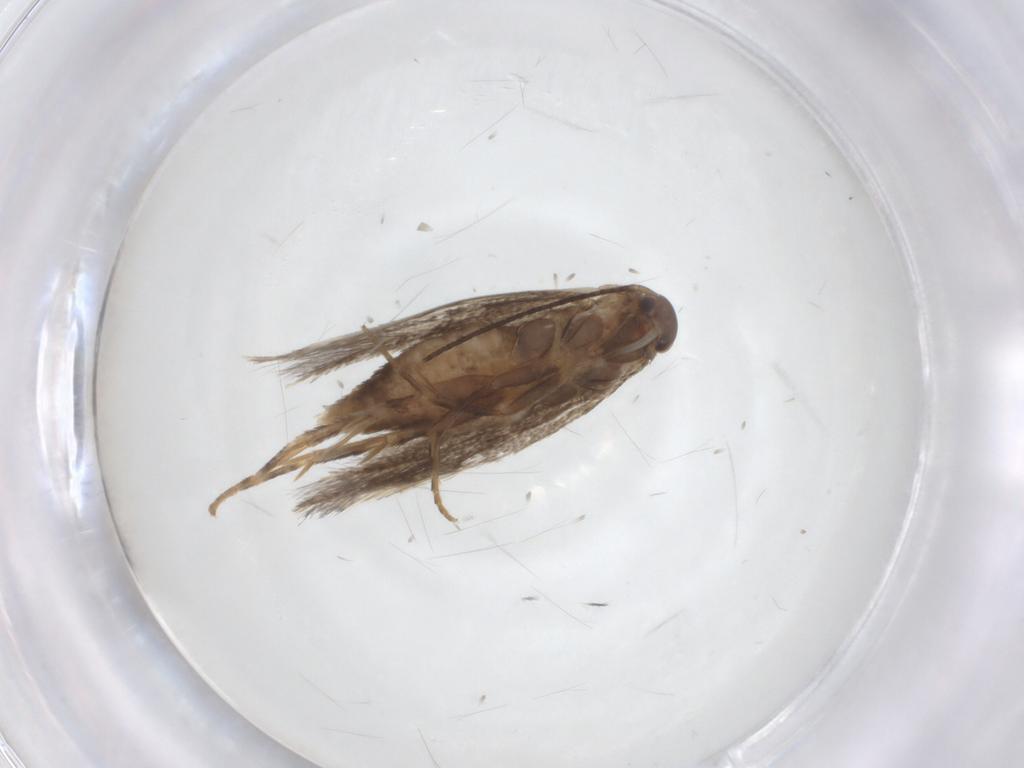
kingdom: Animalia
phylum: Arthropoda
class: Insecta
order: Lepidoptera
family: Elachistidae
